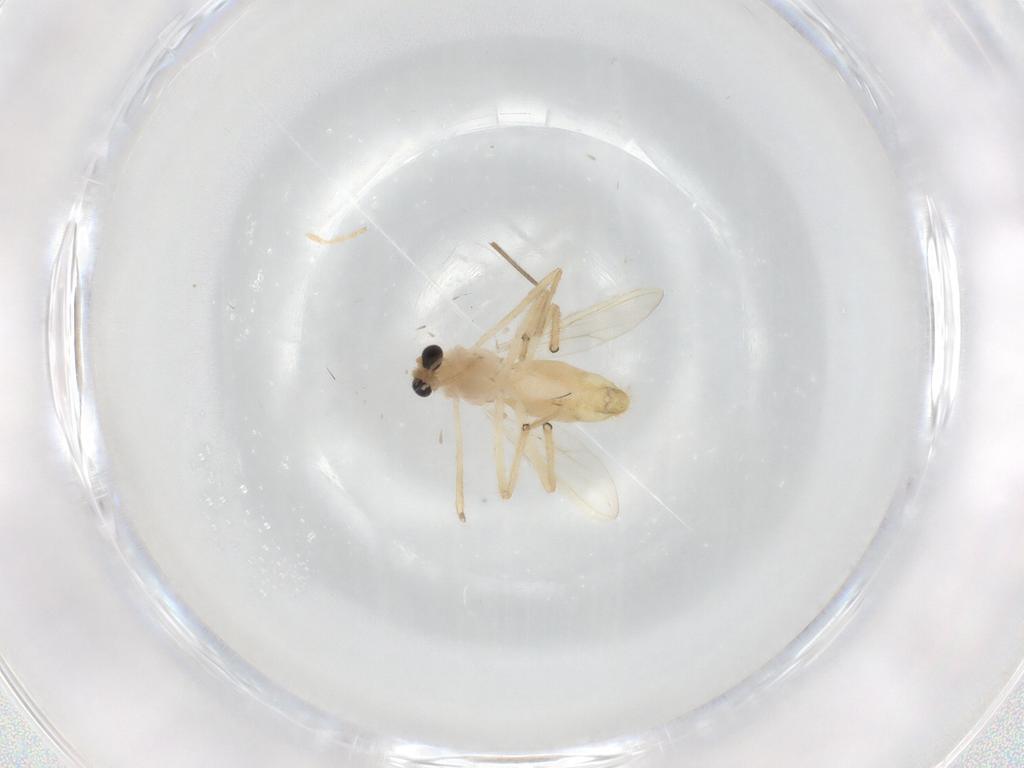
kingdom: Animalia
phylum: Arthropoda
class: Insecta
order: Diptera
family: Chironomidae
